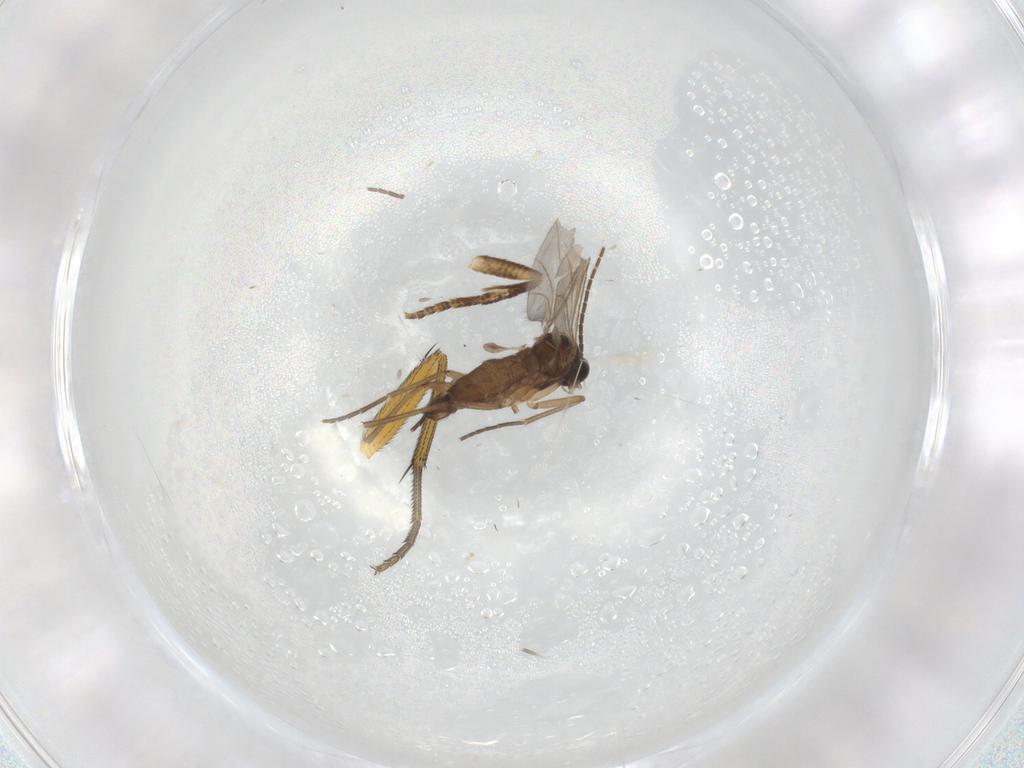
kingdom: Animalia
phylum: Arthropoda
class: Insecta
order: Diptera
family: Sciaridae
